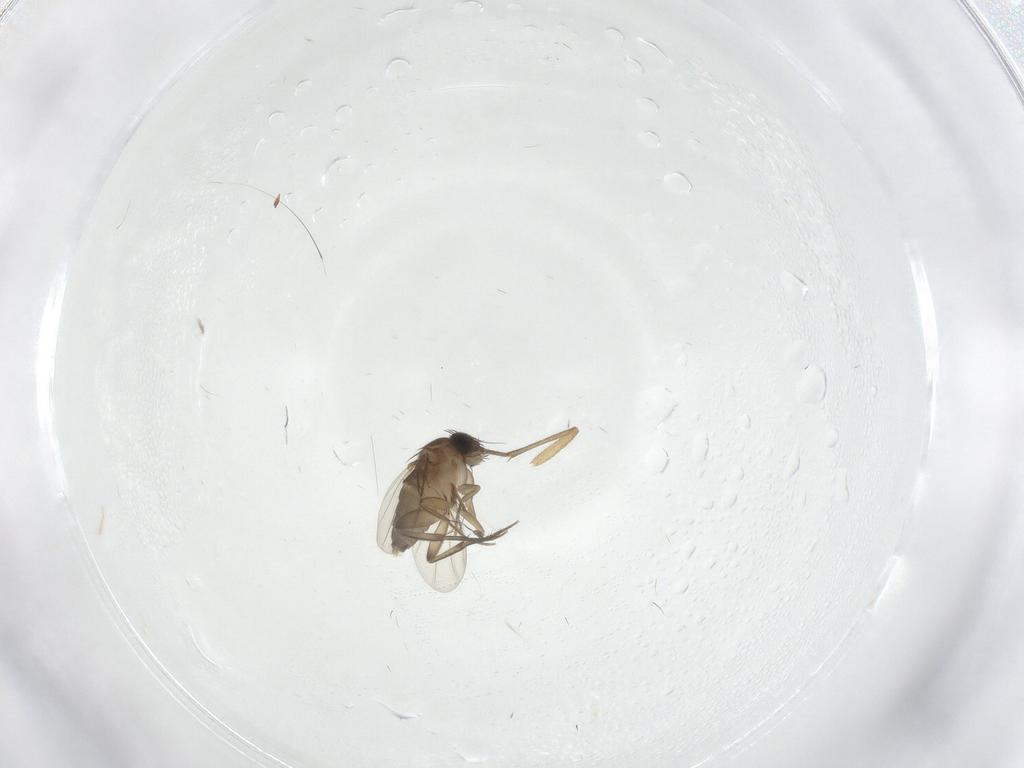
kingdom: Animalia
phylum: Arthropoda
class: Insecta
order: Diptera
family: Phoridae
